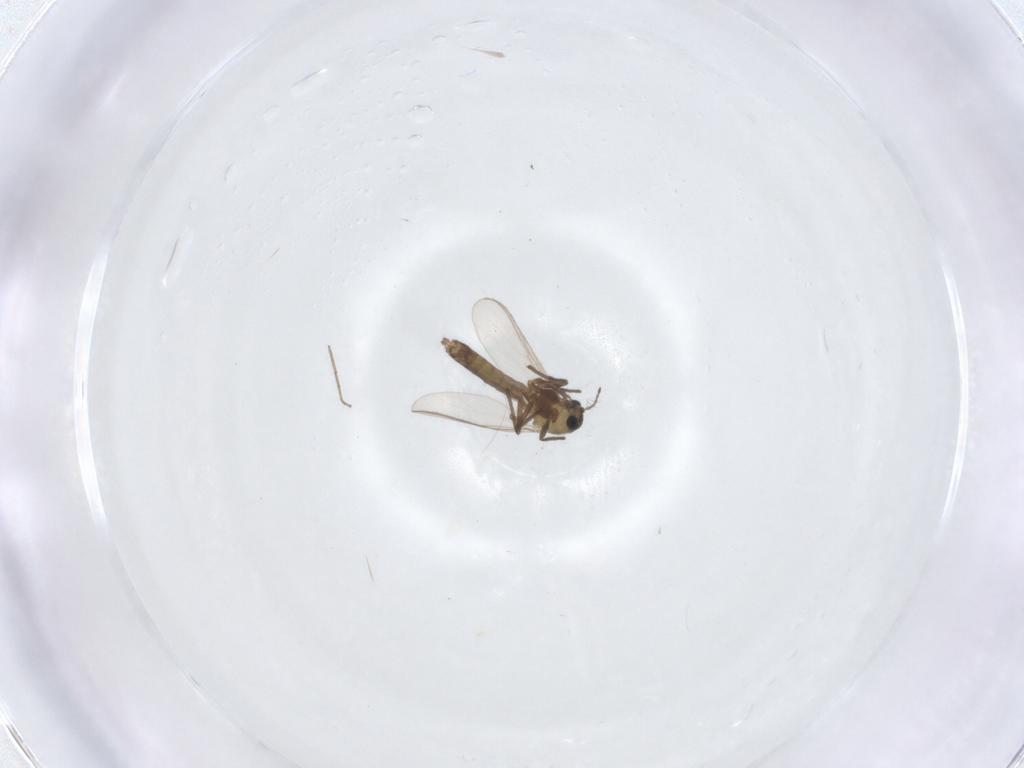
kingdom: Animalia
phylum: Arthropoda
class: Insecta
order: Diptera
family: Chironomidae
